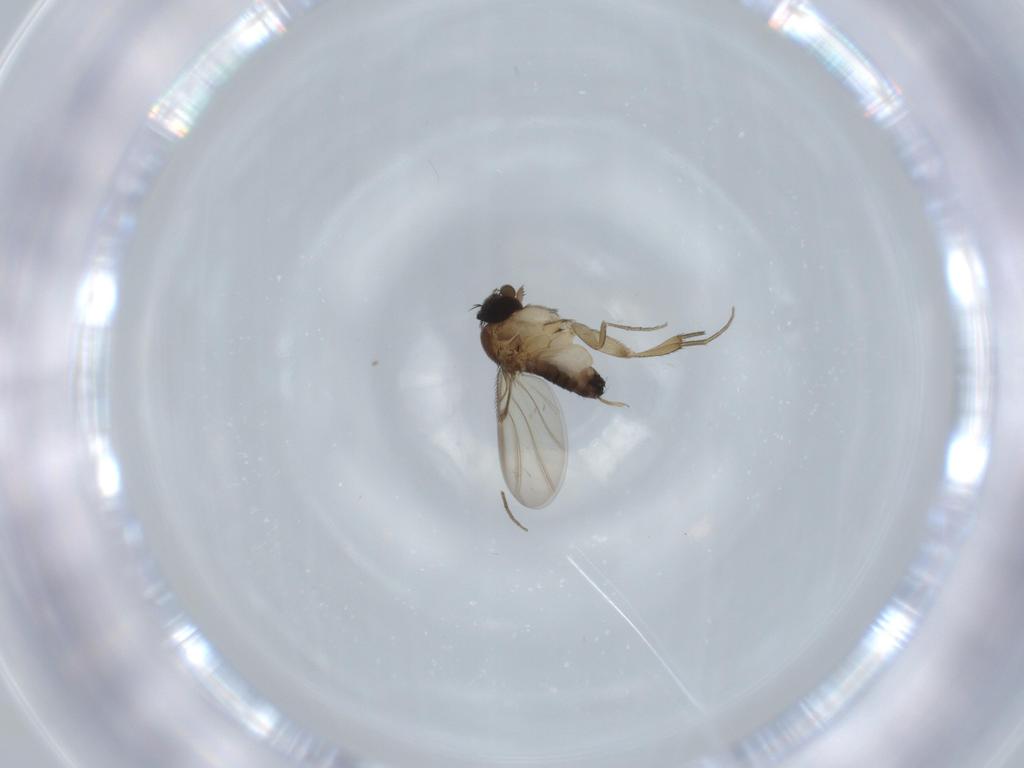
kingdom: Animalia
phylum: Arthropoda
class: Insecta
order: Diptera
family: Phoridae
